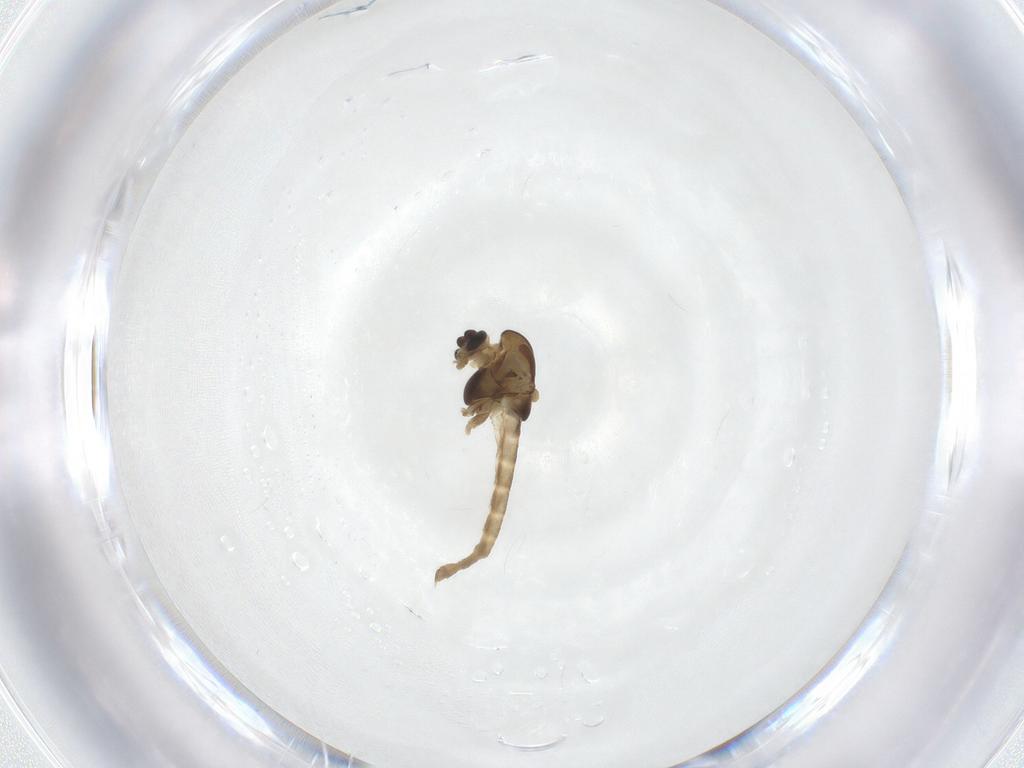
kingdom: Animalia
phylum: Arthropoda
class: Insecta
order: Diptera
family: Chironomidae
